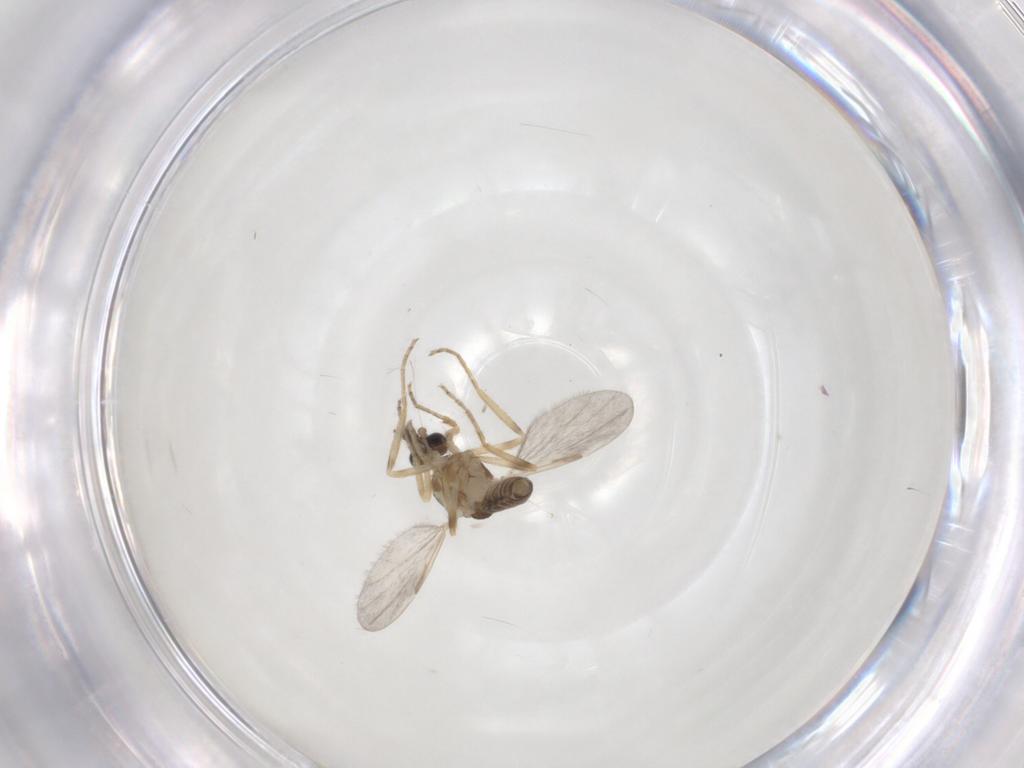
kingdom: Animalia
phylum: Arthropoda
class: Insecta
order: Diptera
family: Ceratopogonidae
